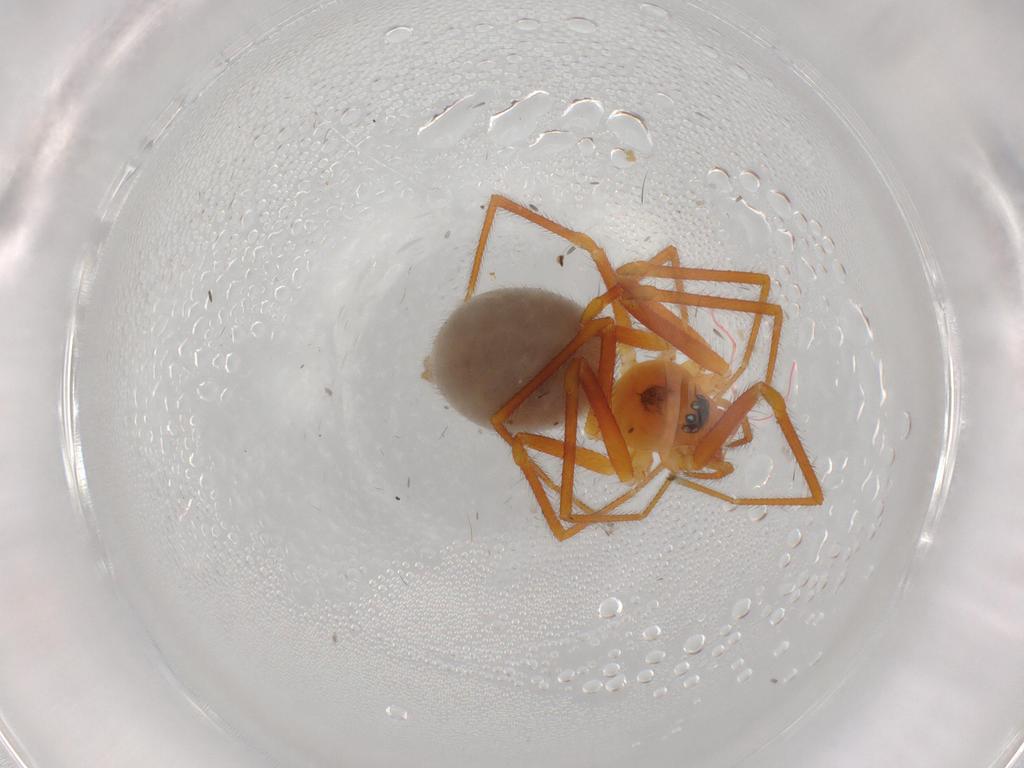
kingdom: Animalia
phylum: Arthropoda
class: Arachnida
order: Araneae
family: Linyphiidae
